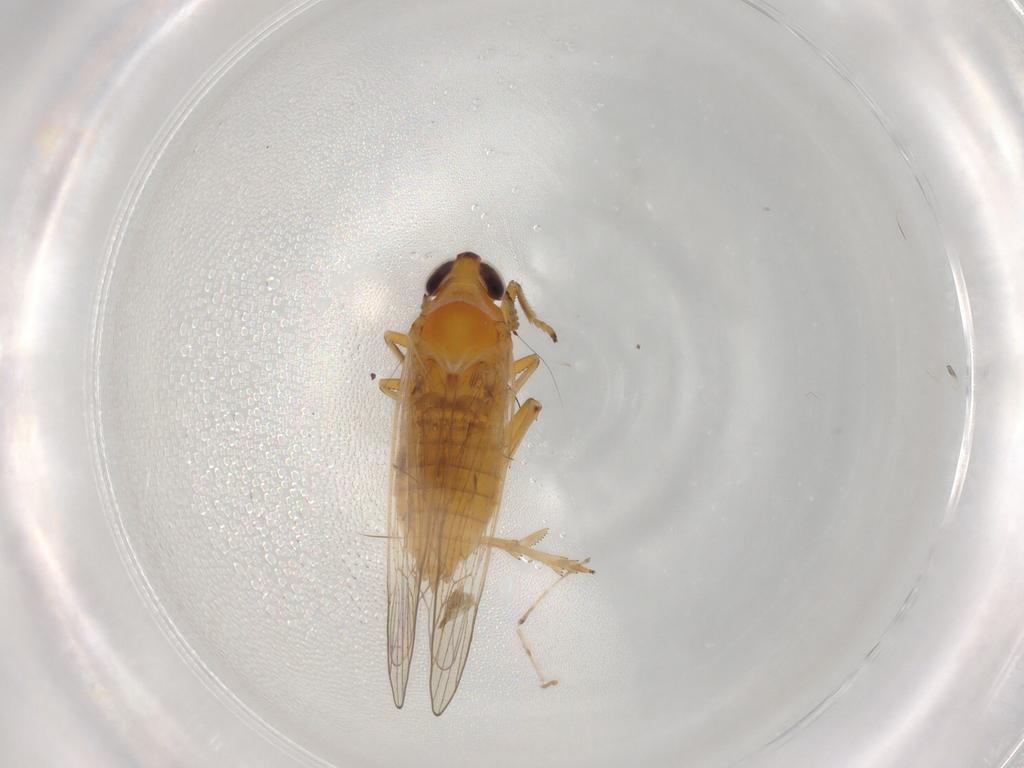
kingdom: Animalia
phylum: Arthropoda
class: Insecta
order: Hemiptera
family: Delphacidae
